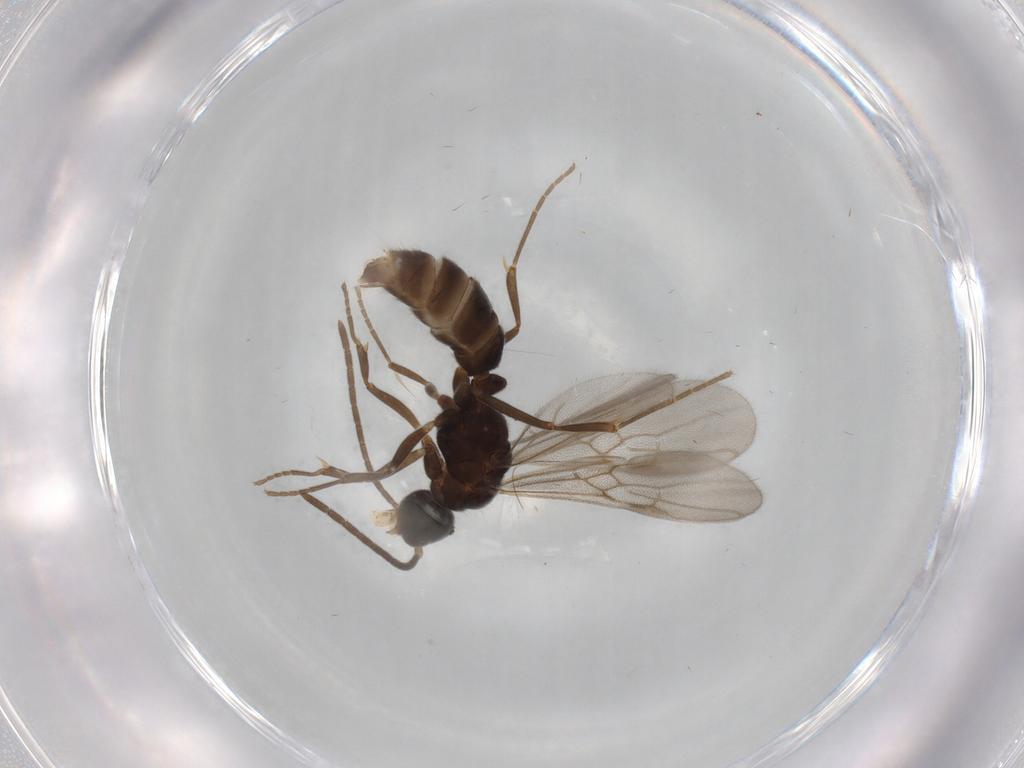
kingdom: Animalia
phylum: Arthropoda
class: Insecta
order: Hymenoptera
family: Formicidae
